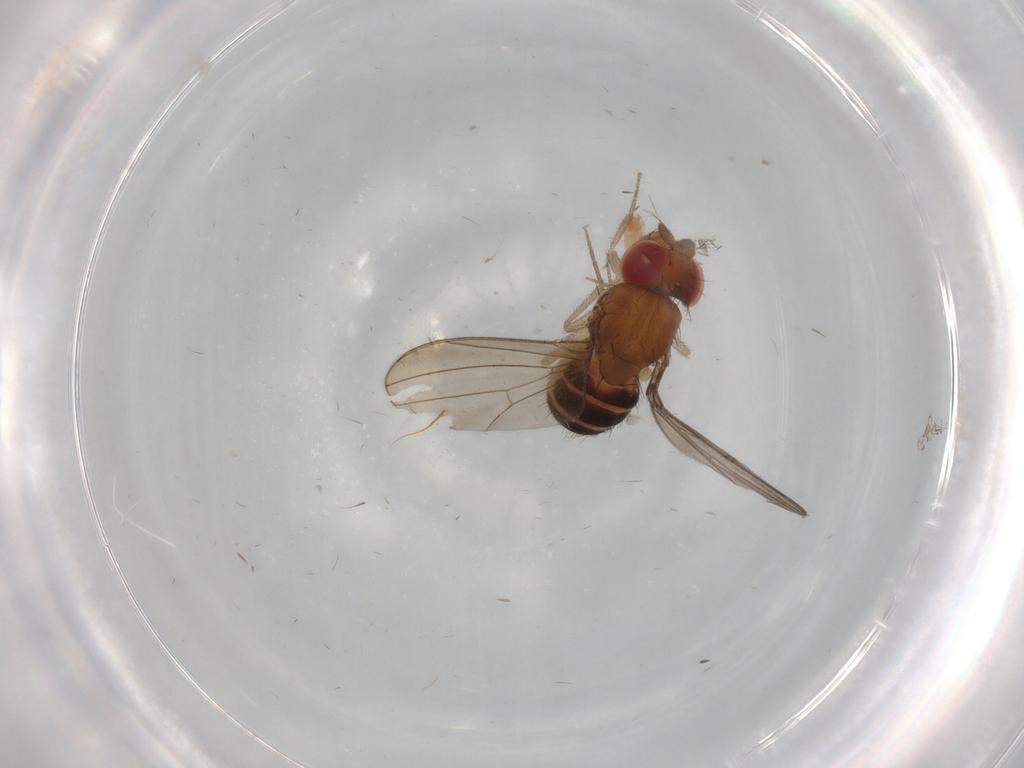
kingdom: Animalia
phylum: Arthropoda
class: Insecta
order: Diptera
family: Drosophilidae
